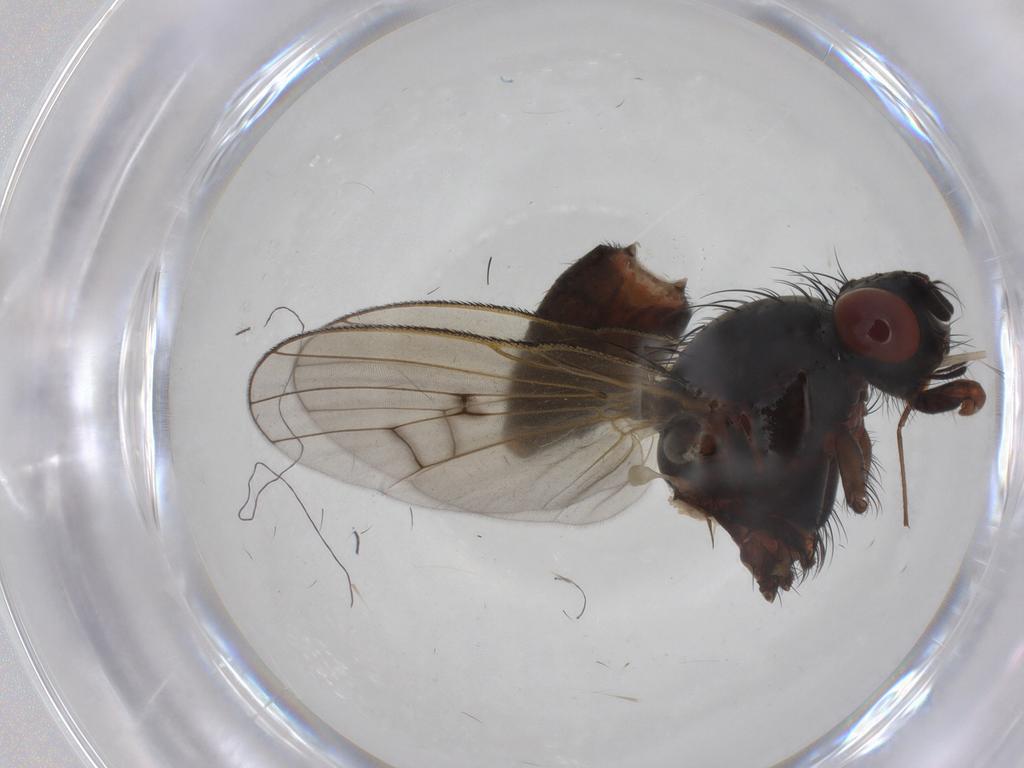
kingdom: Animalia
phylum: Arthropoda
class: Insecta
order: Diptera
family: Anthomyiidae
